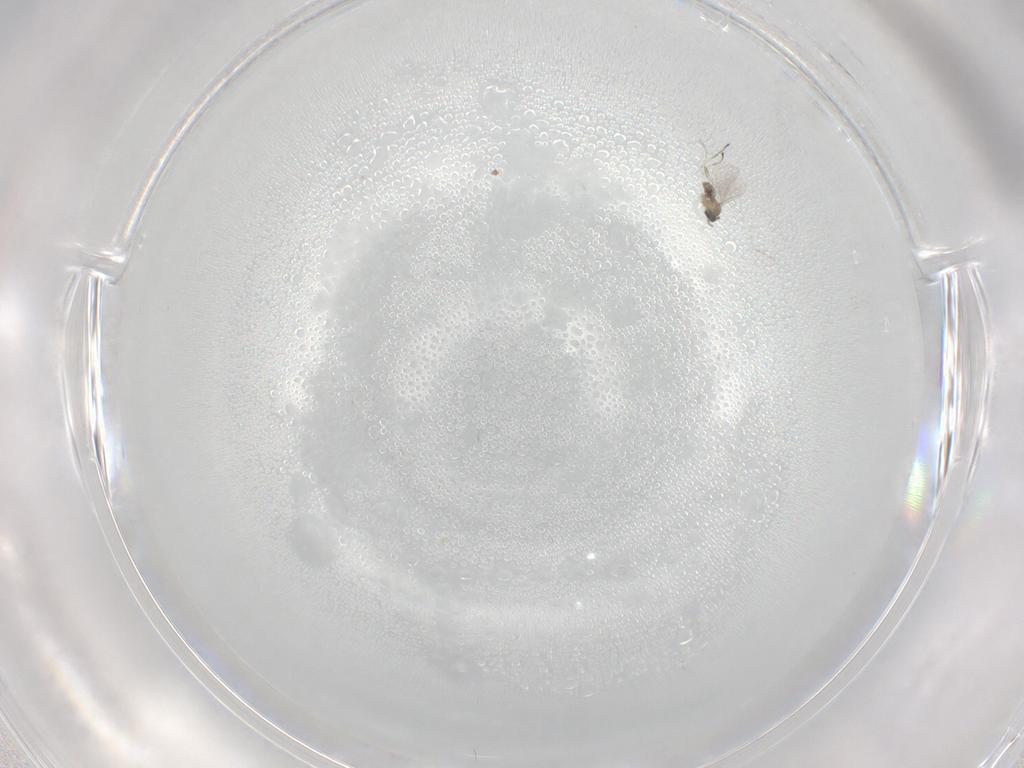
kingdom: Animalia
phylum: Arthropoda
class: Insecta
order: Diptera
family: Cecidomyiidae
